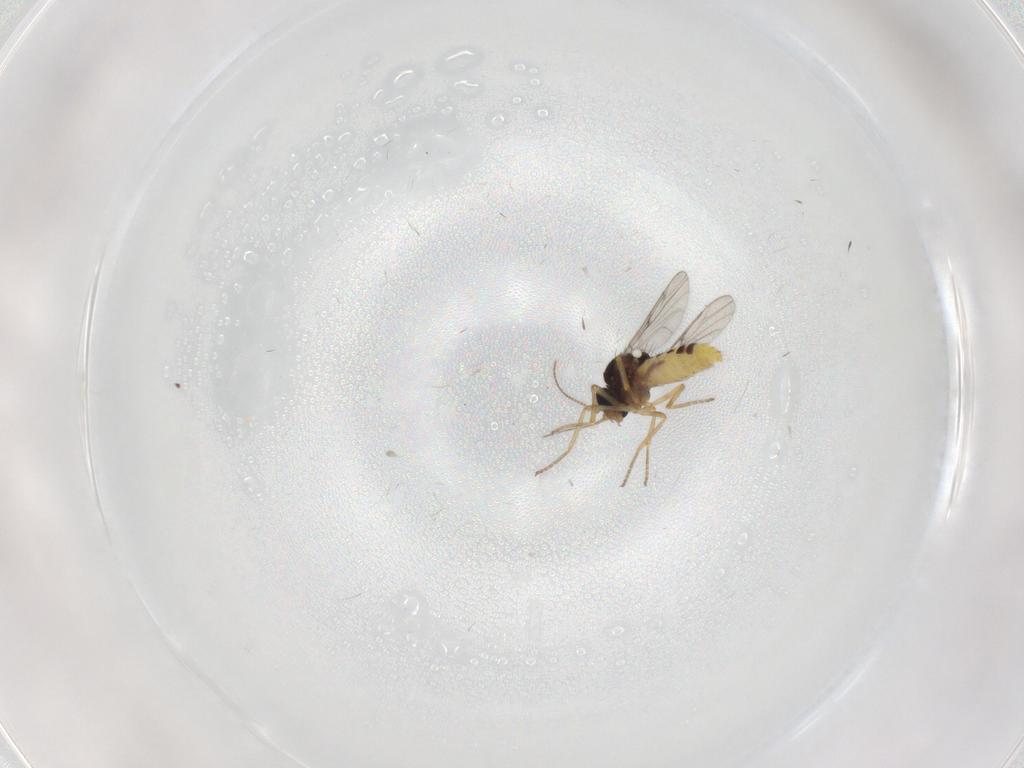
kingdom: Animalia
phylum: Arthropoda
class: Insecta
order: Diptera
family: Ceratopogonidae
